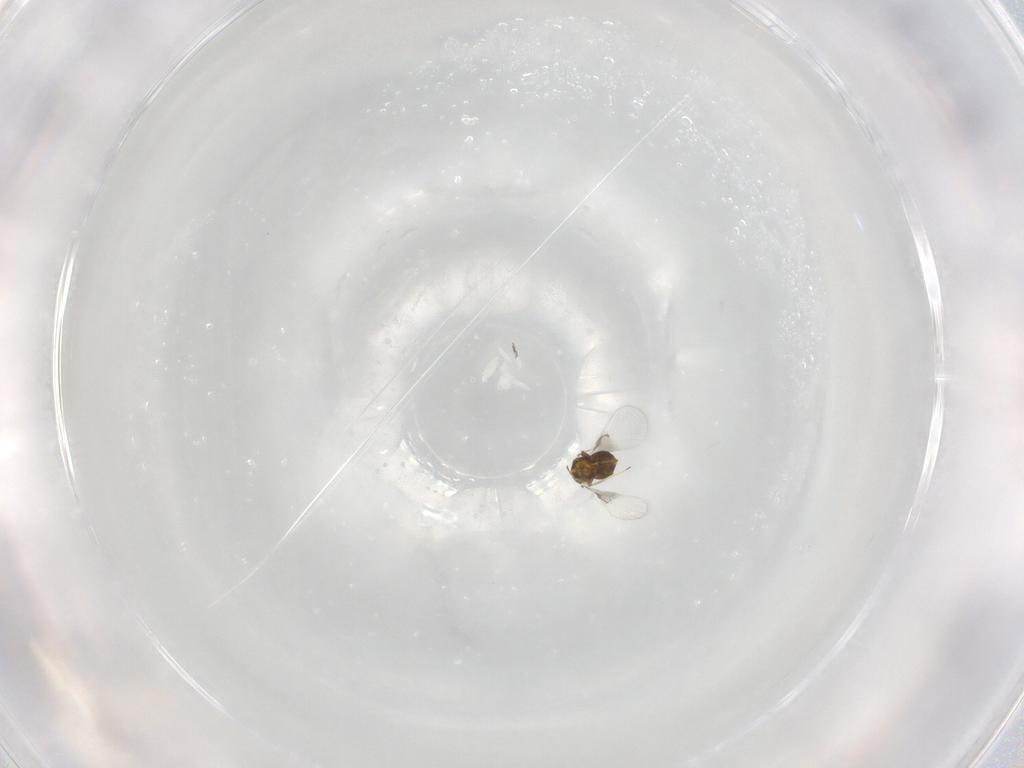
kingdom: Animalia
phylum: Arthropoda
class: Insecta
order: Hymenoptera
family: Trichogrammatidae
